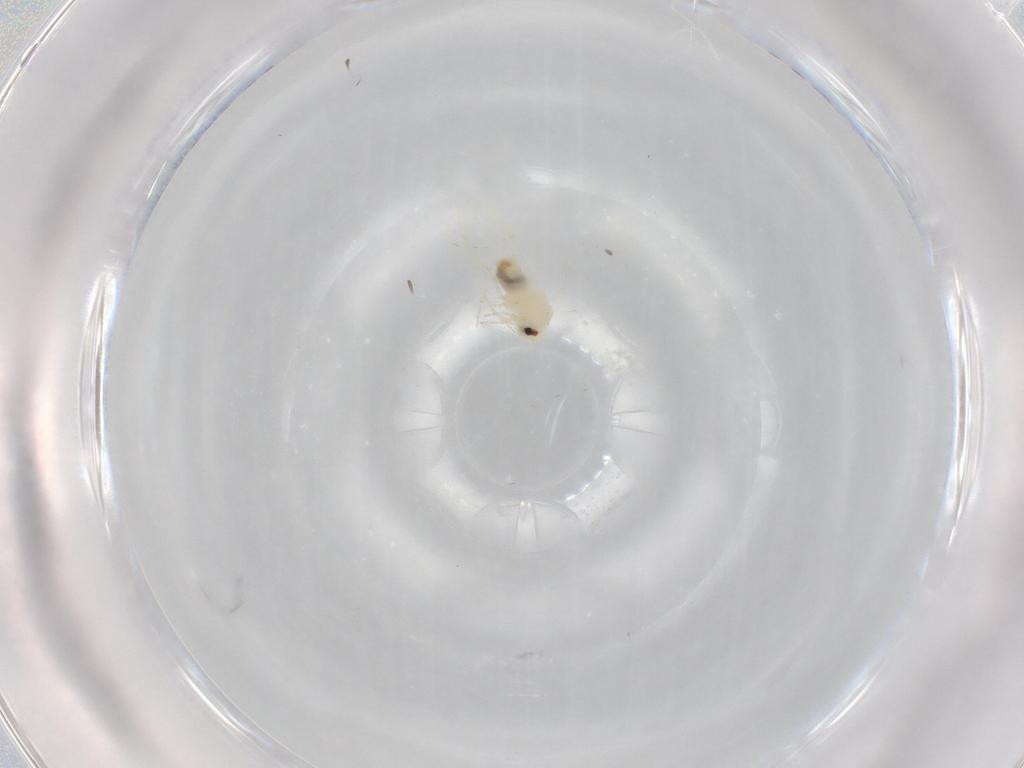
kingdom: Animalia
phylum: Arthropoda
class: Insecta
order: Hemiptera
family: Aleyrodidae
